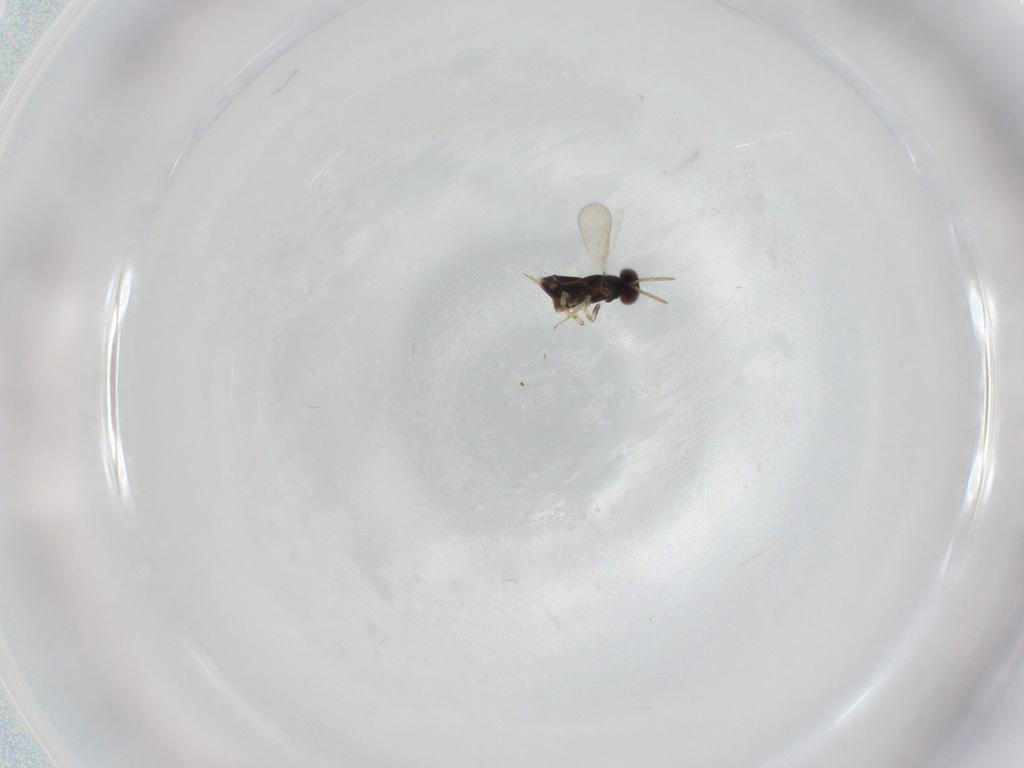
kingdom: Animalia
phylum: Arthropoda
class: Insecta
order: Hymenoptera
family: Aphelinidae
